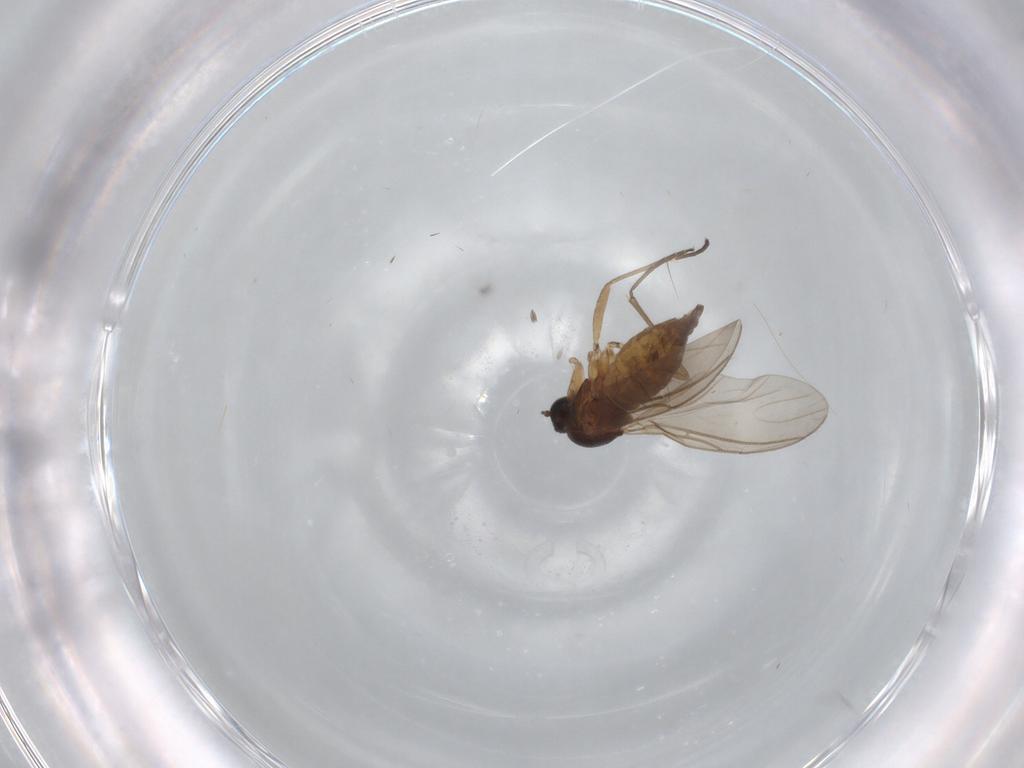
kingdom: Animalia
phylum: Arthropoda
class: Insecta
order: Diptera
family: Sciaridae
